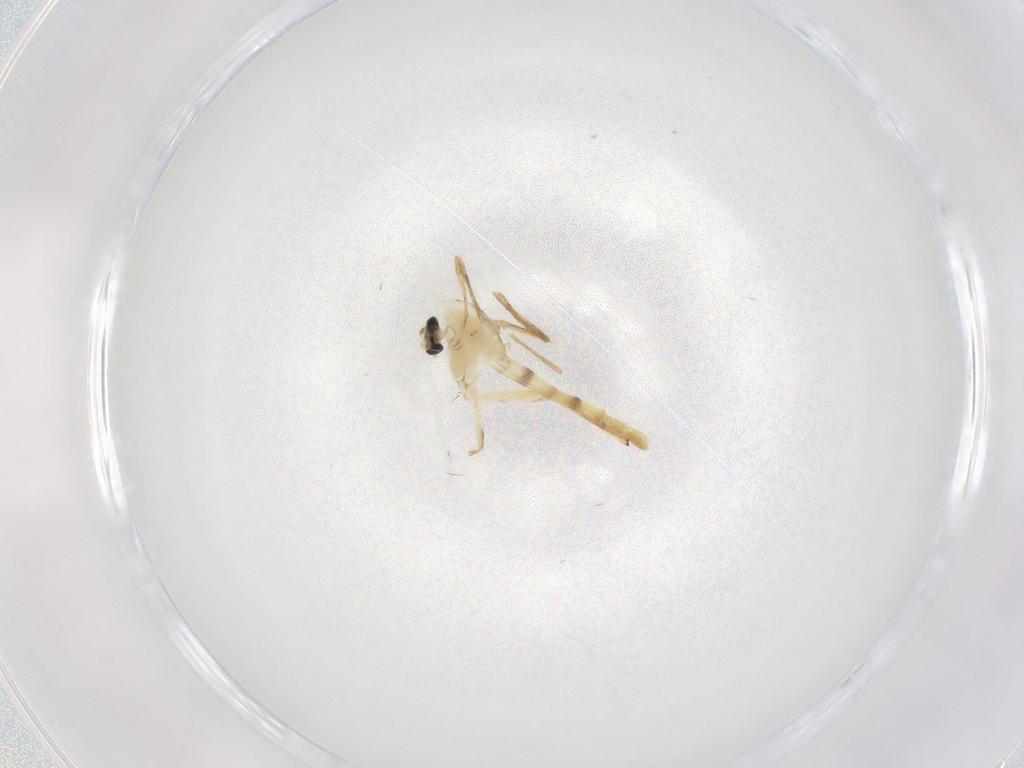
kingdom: Animalia
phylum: Arthropoda
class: Insecta
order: Diptera
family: Chironomidae
